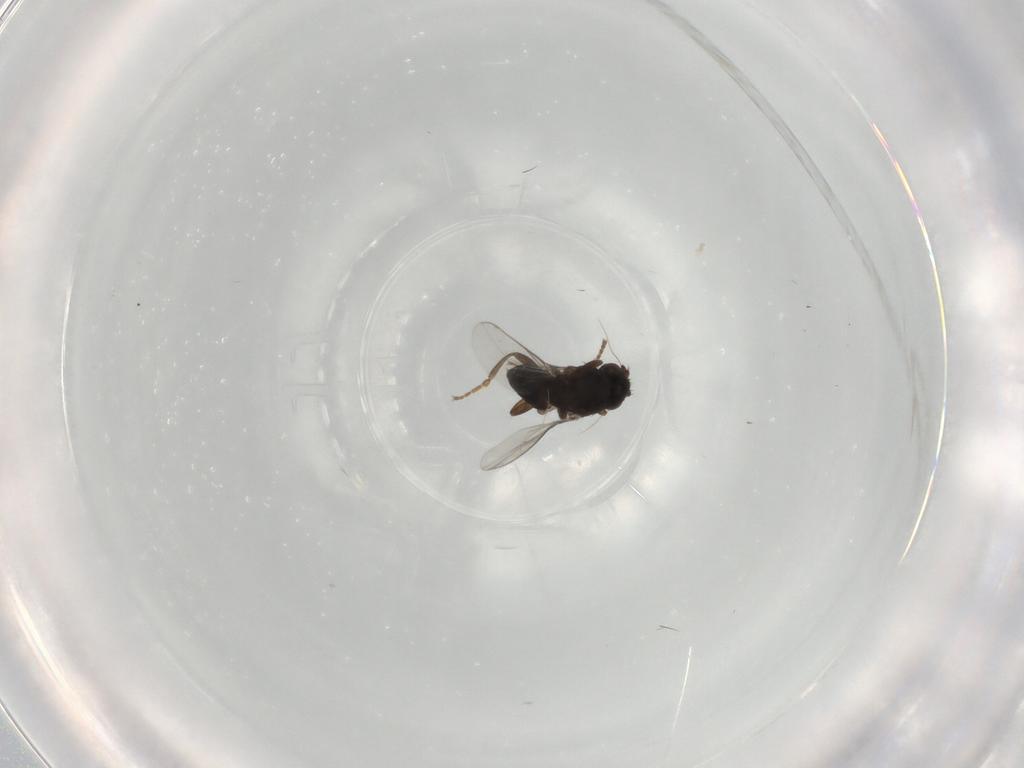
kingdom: Animalia
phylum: Arthropoda
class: Insecta
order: Diptera
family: Sphaeroceridae
